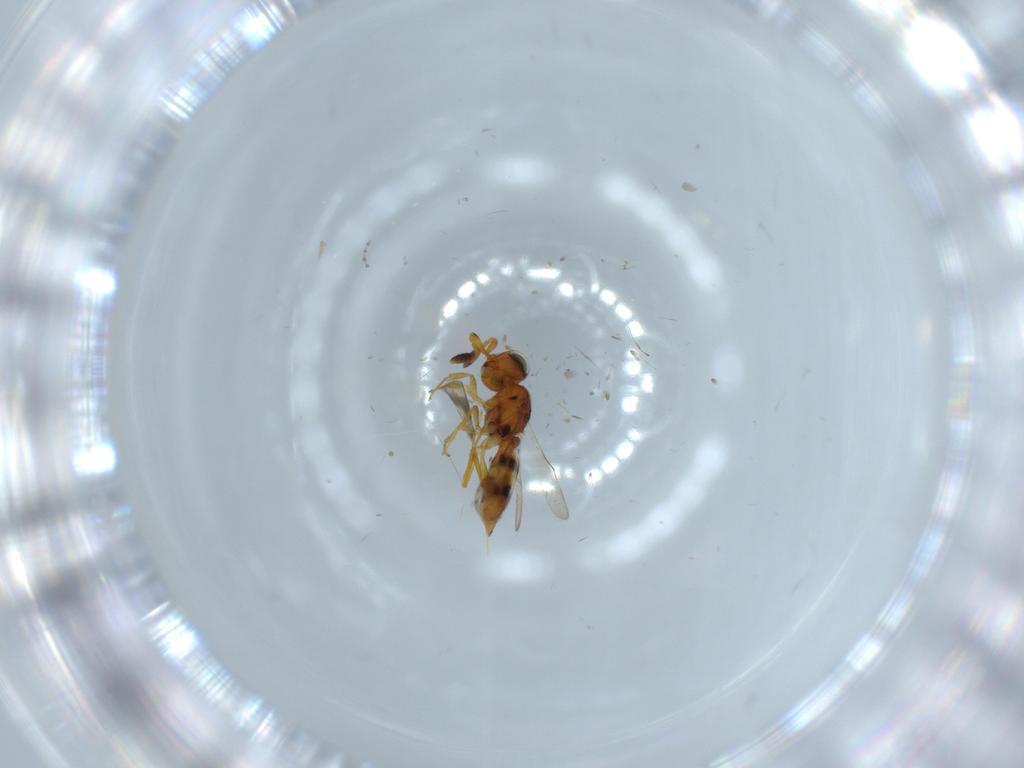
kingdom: Animalia
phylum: Arthropoda
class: Insecta
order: Hymenoptera
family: Scelionidae
